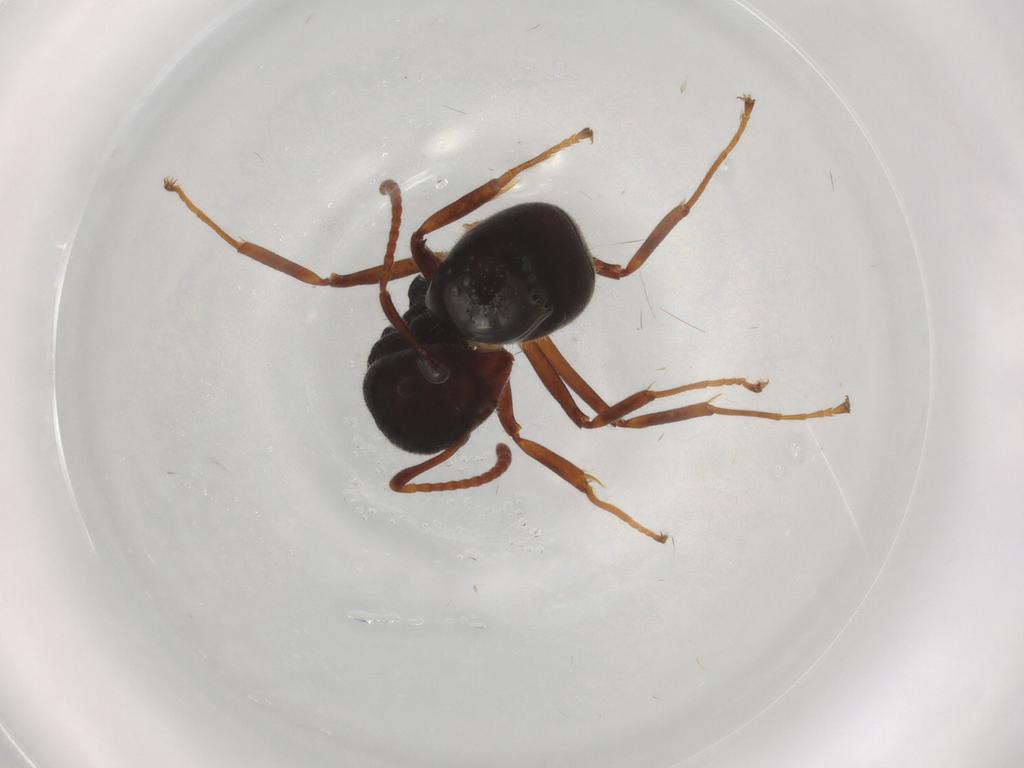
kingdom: Animalia
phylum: Arthropoda
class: Insecta
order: Hymenoptera
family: Formicidae
